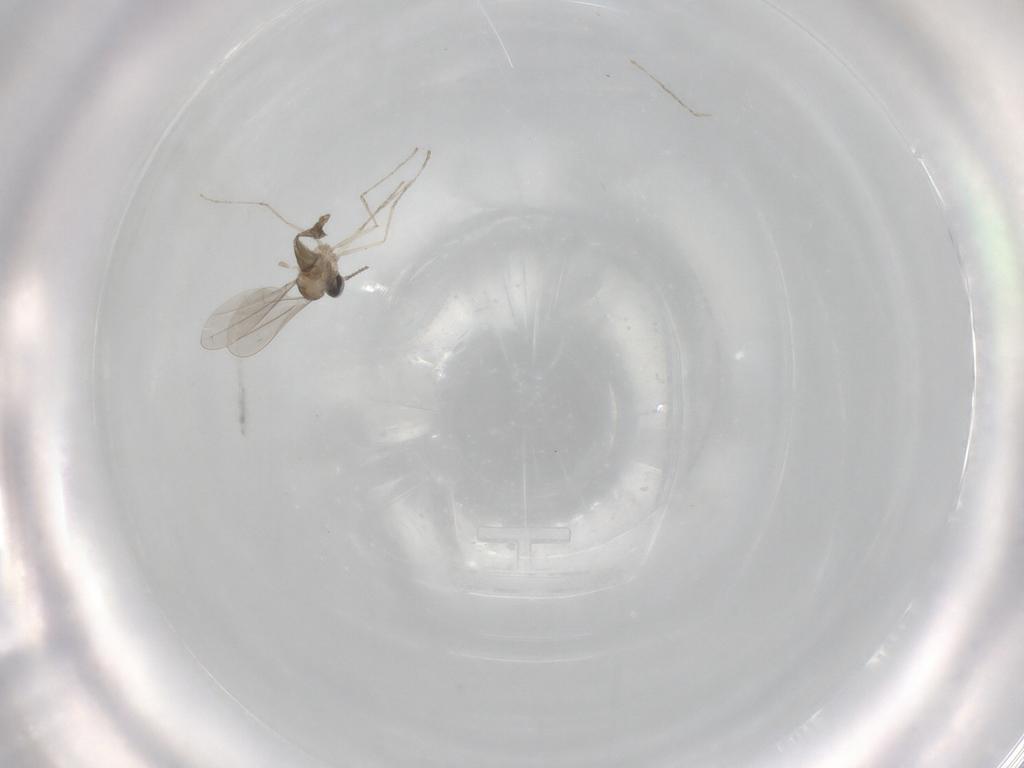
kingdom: Animalia
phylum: Arthropoda
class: Insecta
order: Diptera
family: Cecidomyiidae
